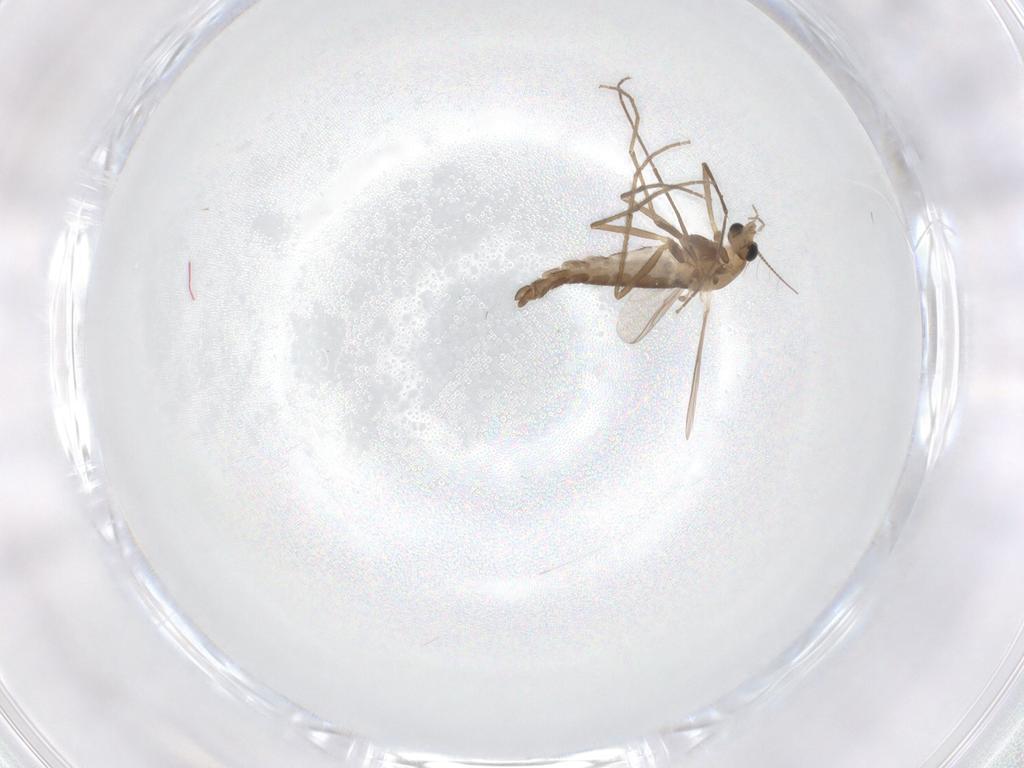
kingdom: Animalia
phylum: Arthropoda
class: Insecta
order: Diptera
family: Chironomidae
